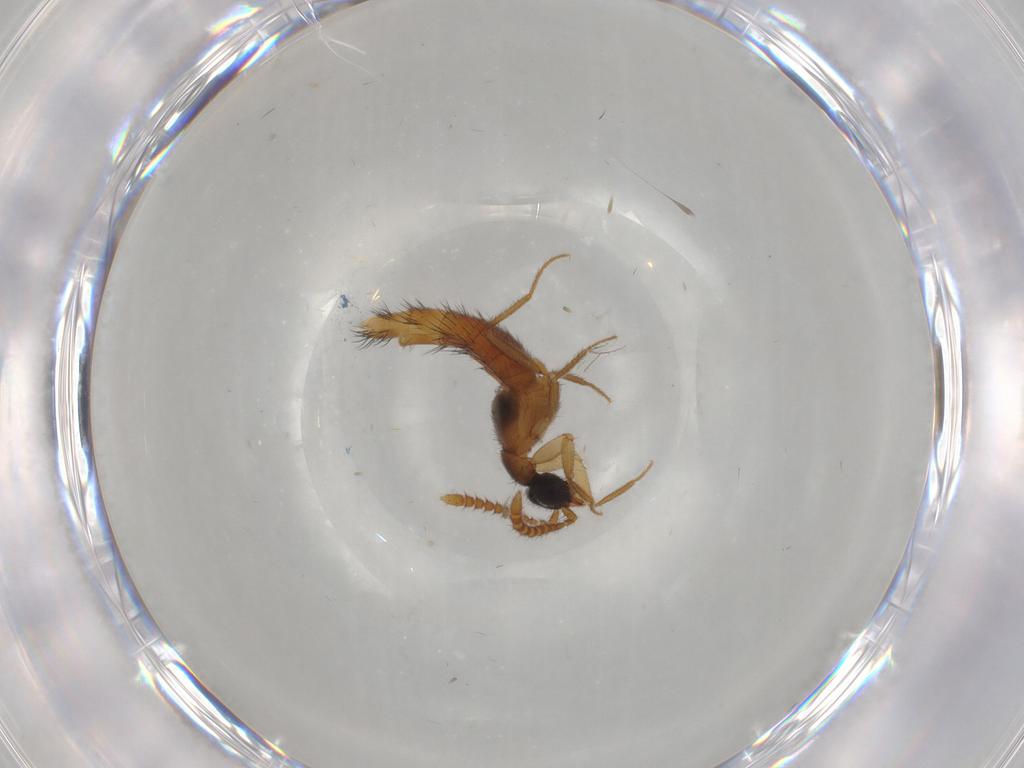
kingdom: Animalia
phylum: Arthropoda
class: Insecta
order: Coleoptera
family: Staphylinidae
